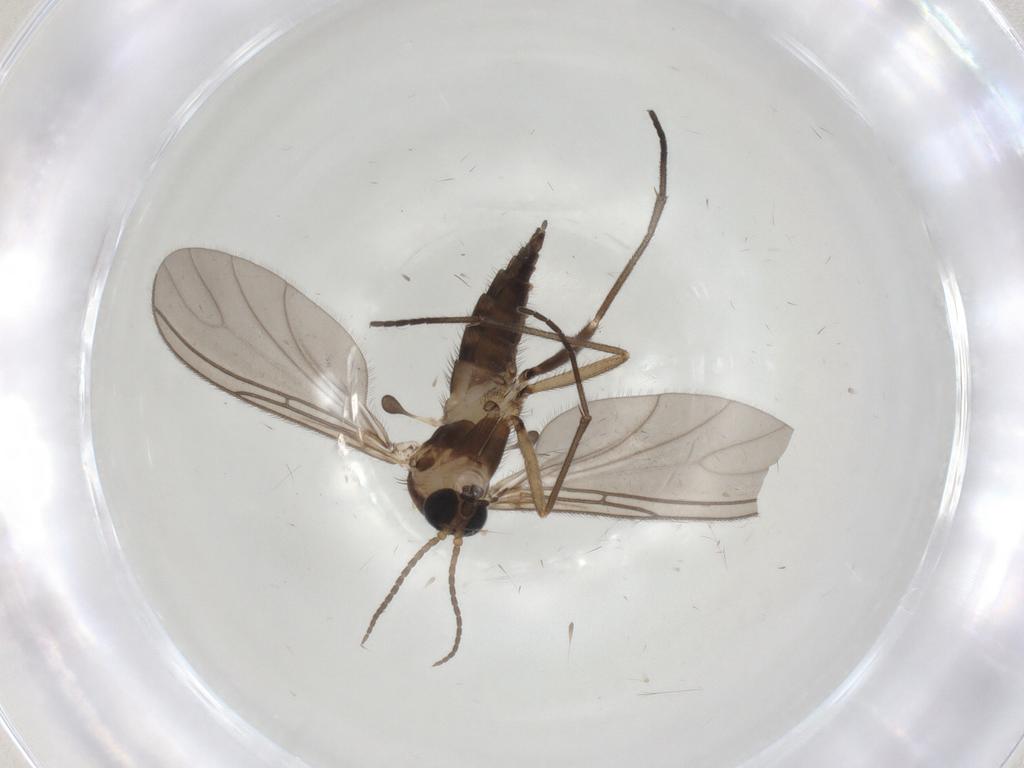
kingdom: Animalia
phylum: Arthropoda
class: Insecta
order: Diptera
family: Sciaridae
